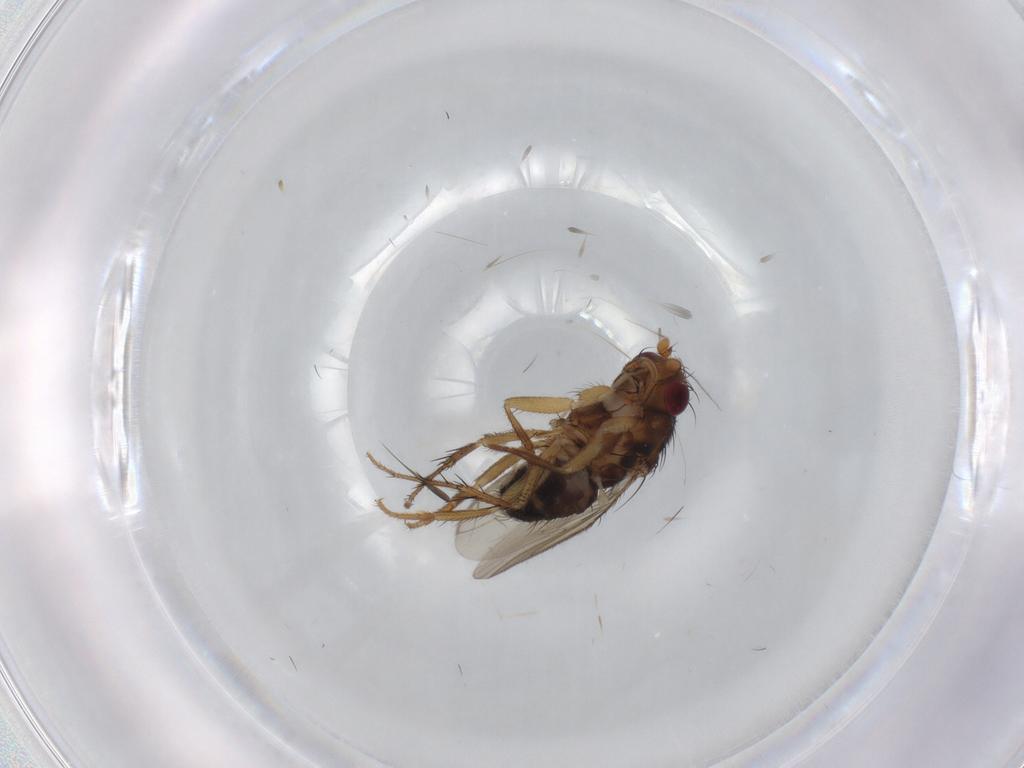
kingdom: Animalia
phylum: Arthropoda
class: Insecta
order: Diptera
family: Sphaeroceridae
